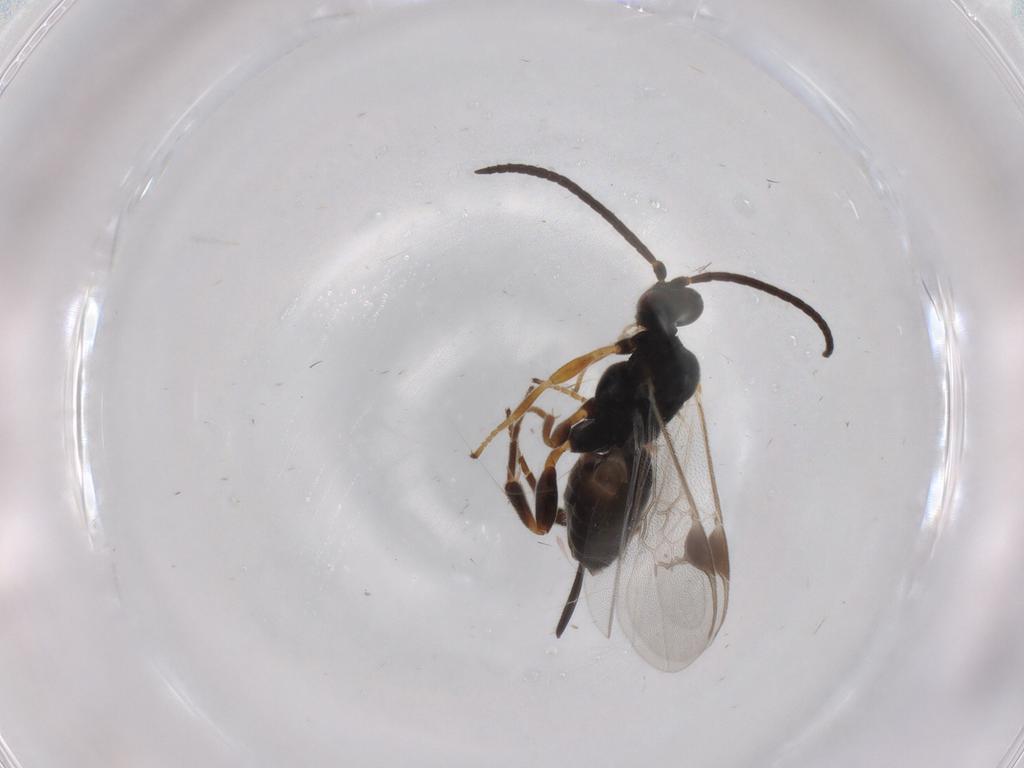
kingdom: Animalia
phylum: Arthropoda
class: Insecta
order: Hymenoptera
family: Braconidae
